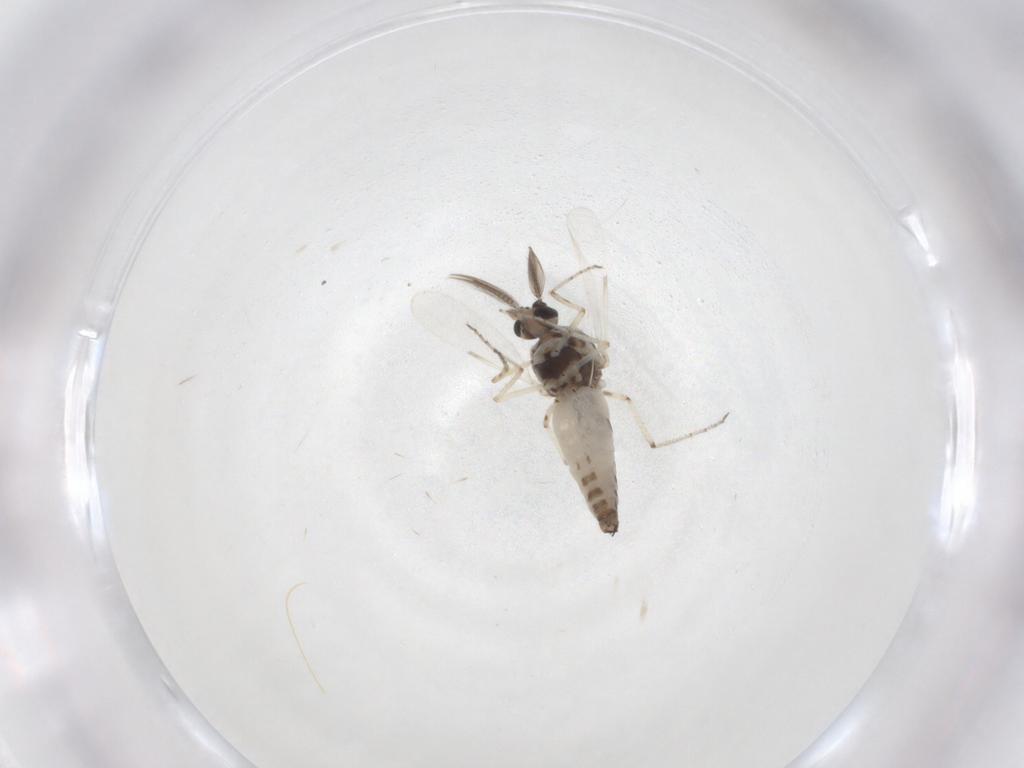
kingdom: Animalia
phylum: Arthropoda
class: Insecta
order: Diptera
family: Ceratopogonidae
